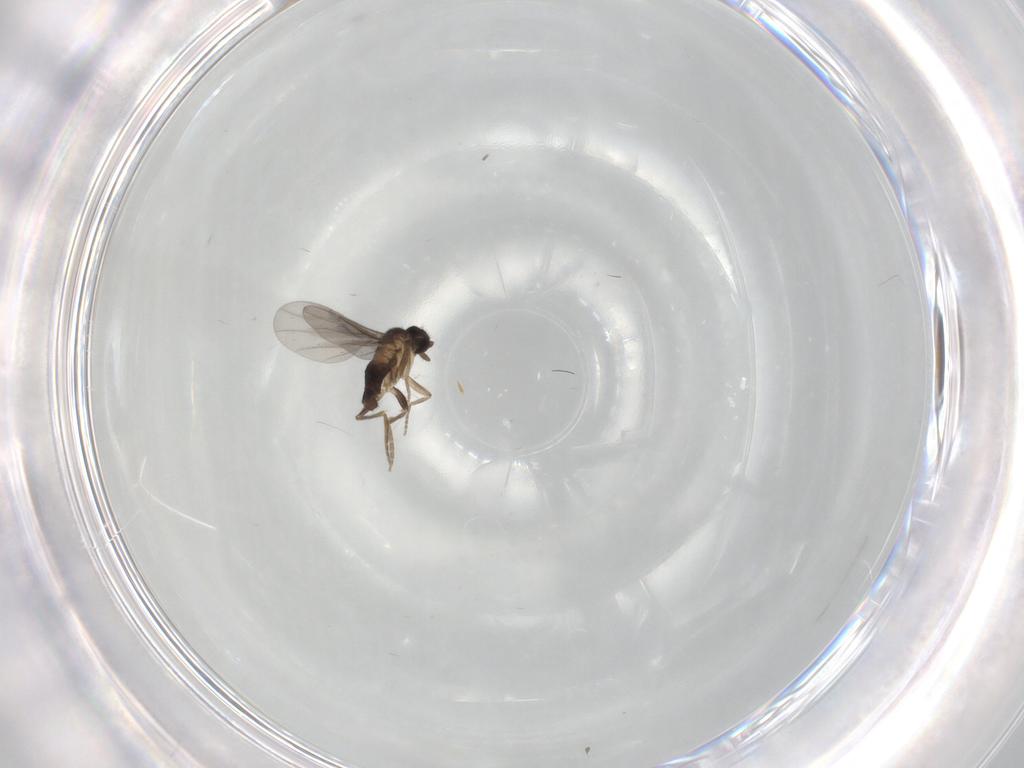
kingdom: Animalia
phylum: Arthropoda
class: Insecta
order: Diptera
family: Phoridae
